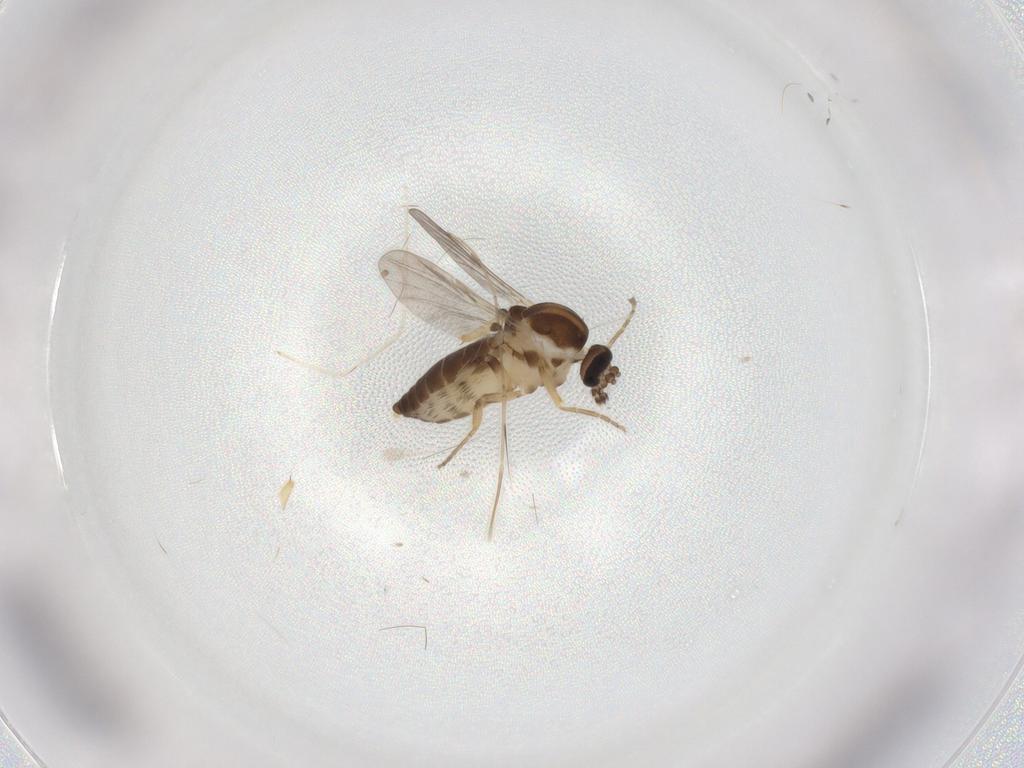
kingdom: Animalia
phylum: Arthropoda
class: Insecta
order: Diptera
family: Ceratopogonidae
